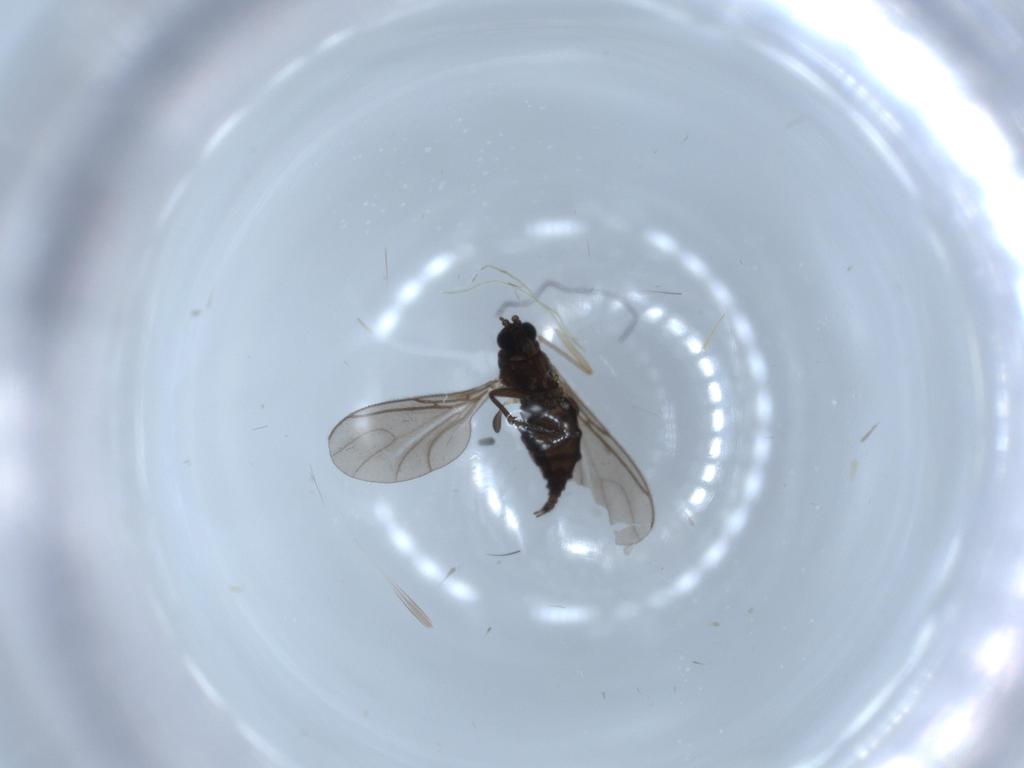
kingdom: Animalia
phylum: Arthropoda
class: Insecta
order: Diptera
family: Sciaridae
